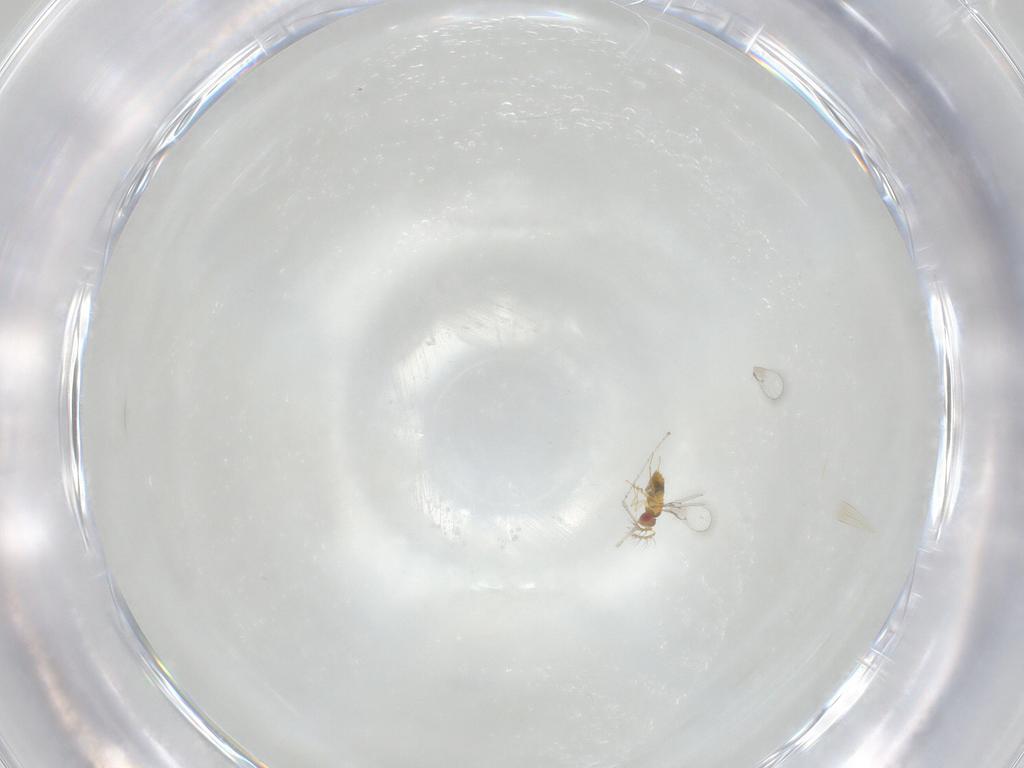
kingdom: Animalia
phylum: Arthropoda
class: Insecta
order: Diptera
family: Cecidomyiidae
